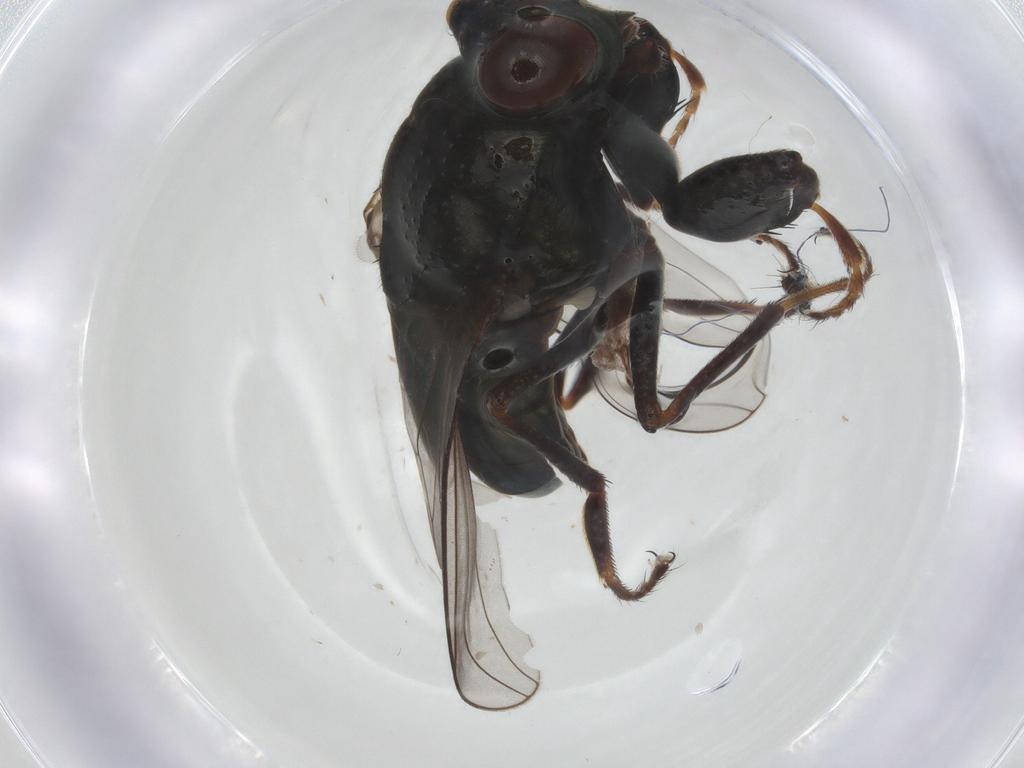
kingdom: Animalia
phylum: Arthropoda
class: Insecta
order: Diptera
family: Ephydridae
